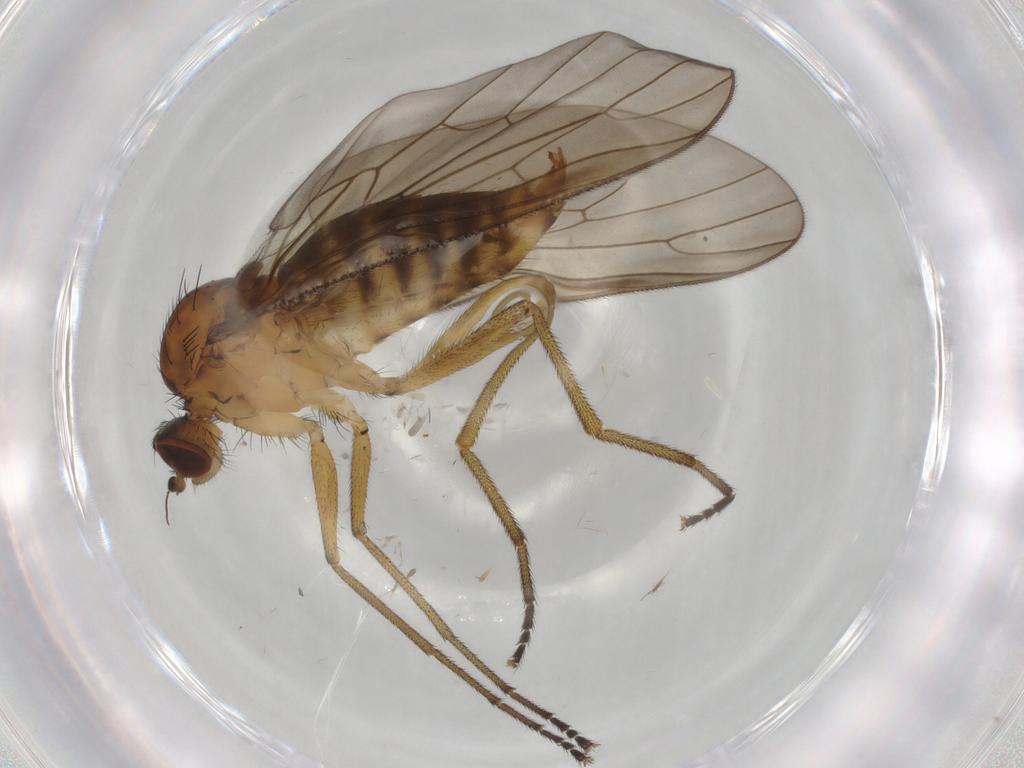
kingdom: Animalia
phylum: Arthropoda
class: Insecta
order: Diptera
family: Brachystomatidae
